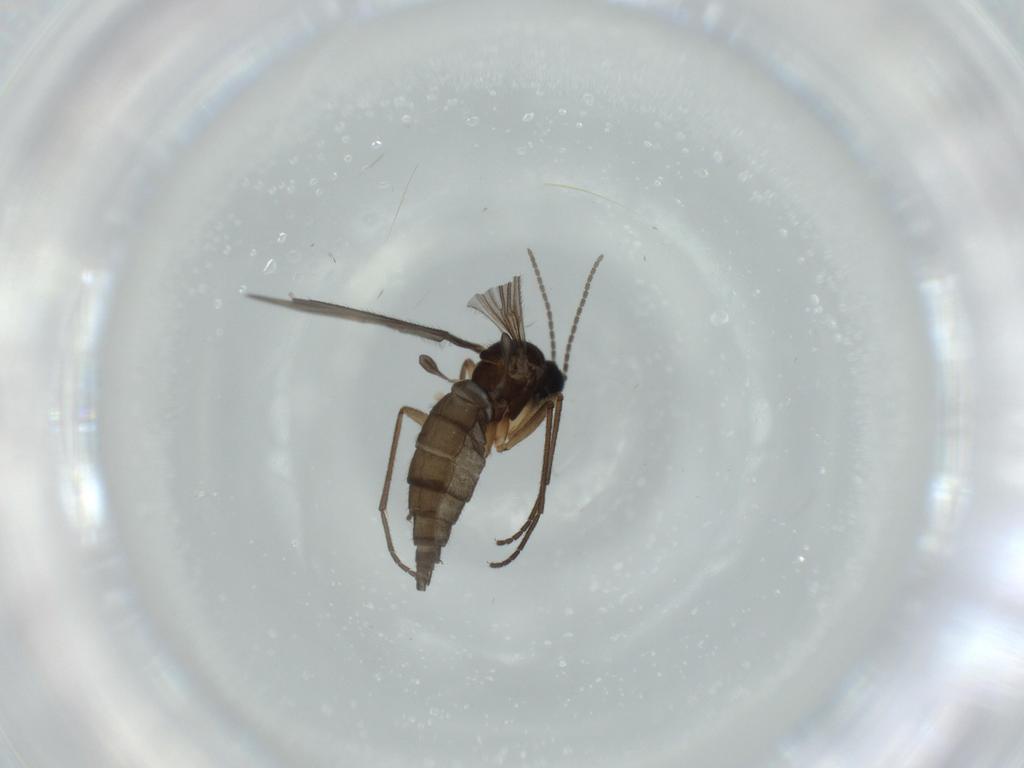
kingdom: Animalia
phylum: Arthropoda
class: Insecta
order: Diptera
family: Sciaridae
